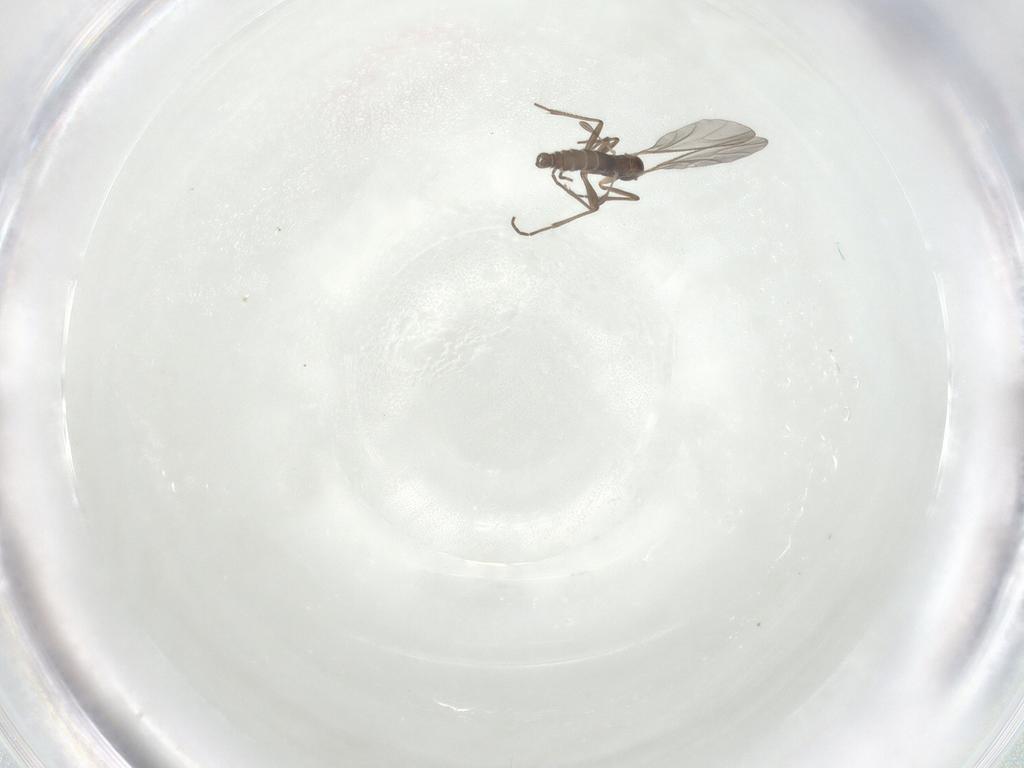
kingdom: Animalia
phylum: Arthropoda
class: Insecta
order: Diptera
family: Sciaridae
